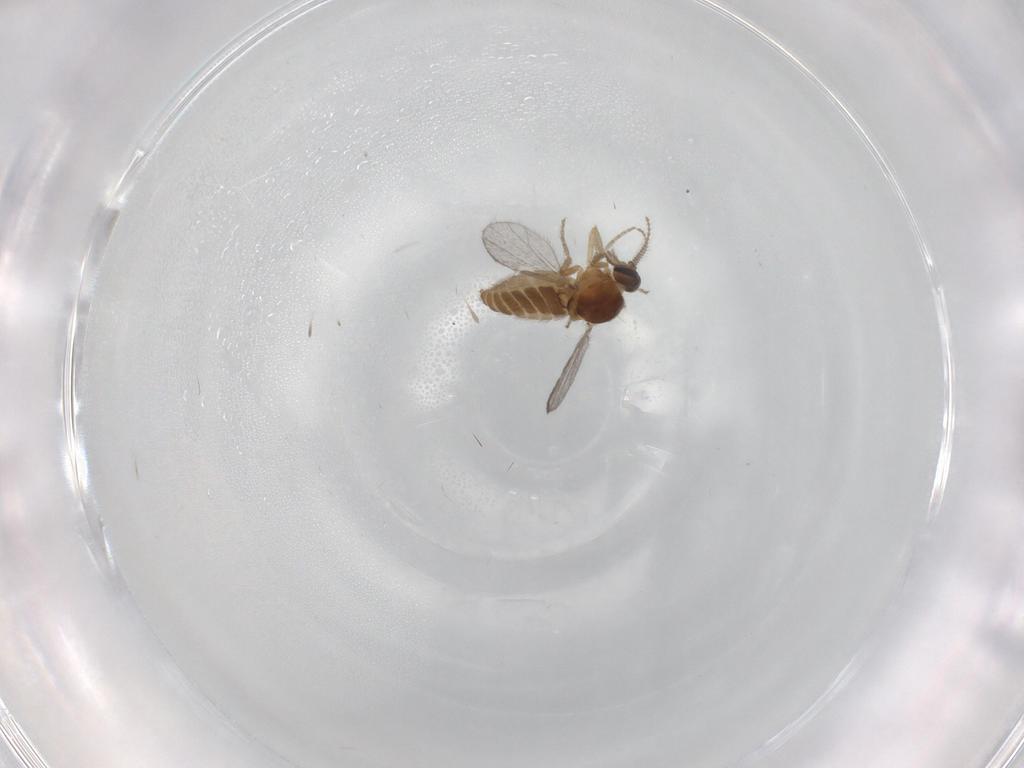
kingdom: Animalia
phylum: Arthropoda
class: Insecta
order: Diptera
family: Ceratopogonidae
